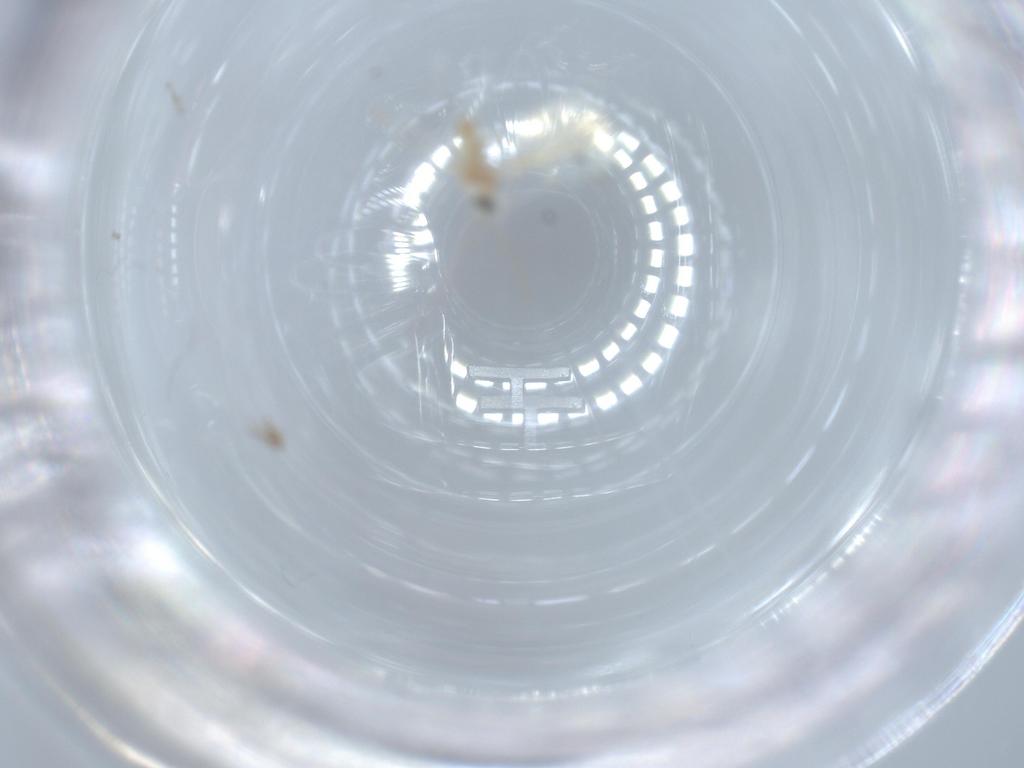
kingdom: Animalia
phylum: Arthropoda
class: Insecta
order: Diptera
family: Cecidomyiidae
